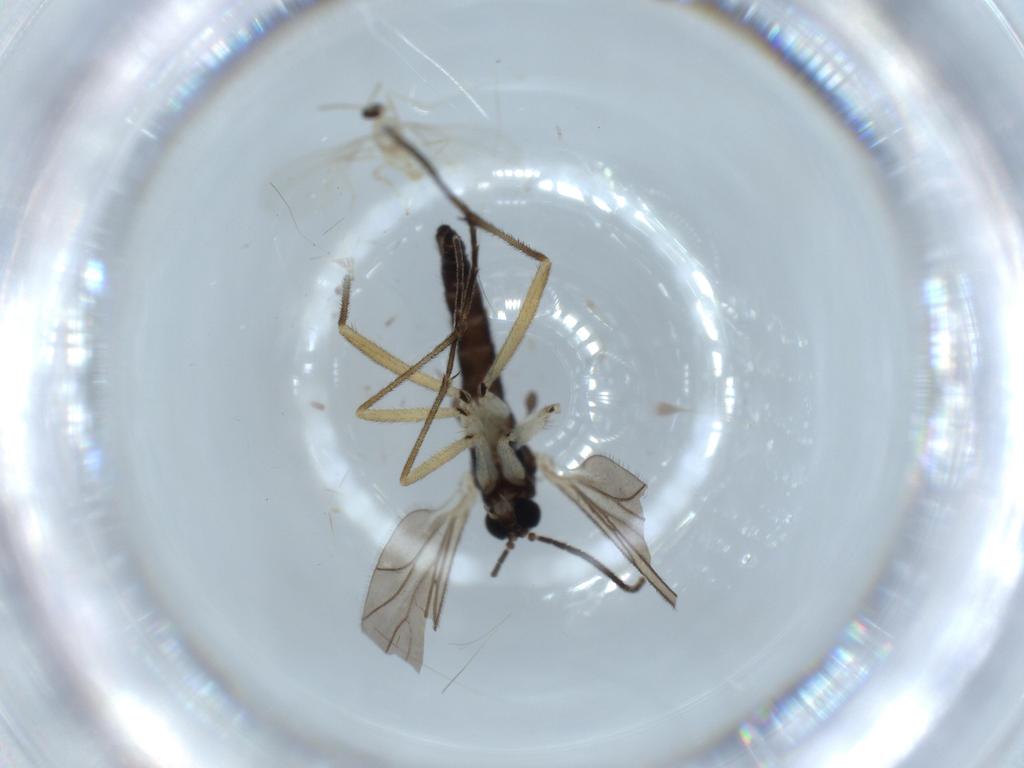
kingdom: Animalia
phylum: Arthropoda
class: Insecta
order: Diptera
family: Sciaridae
